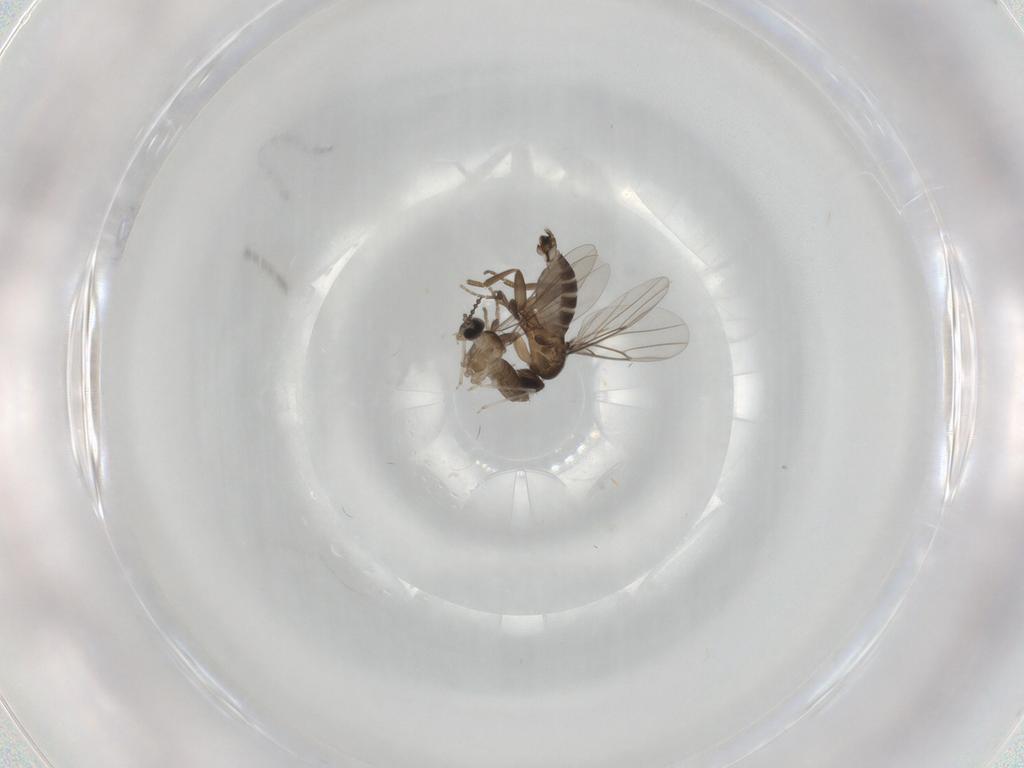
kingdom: Animalia
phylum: Arthropoda
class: Insecta
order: Diptera
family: Cecidomyiidae
